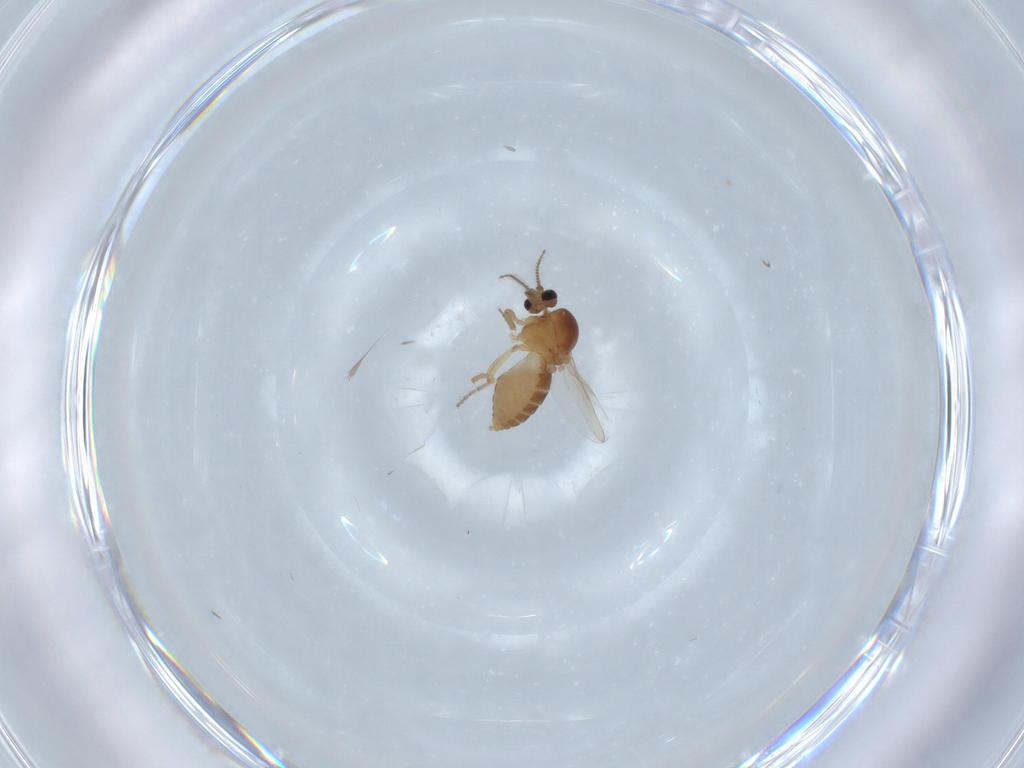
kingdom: Animalia
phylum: Arthropoda
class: Insecta
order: Diptera
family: Ceratopogonidae
